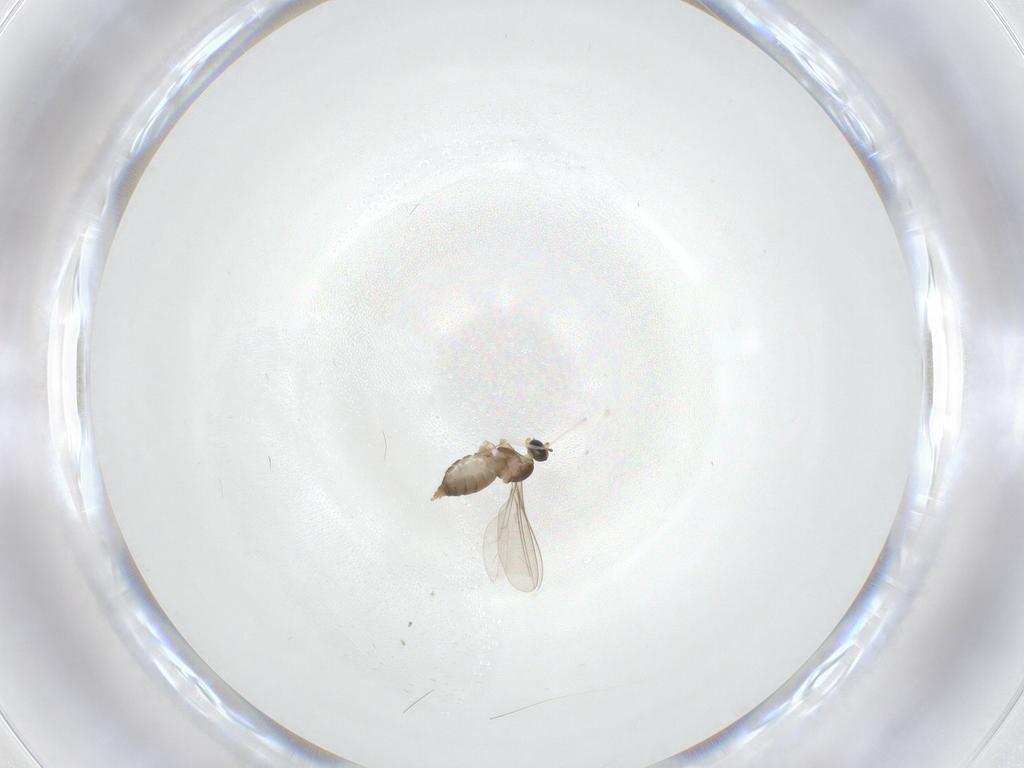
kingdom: Animalia
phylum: Arthropoda
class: Insecta
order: Diptera
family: Cecidomyiidae
